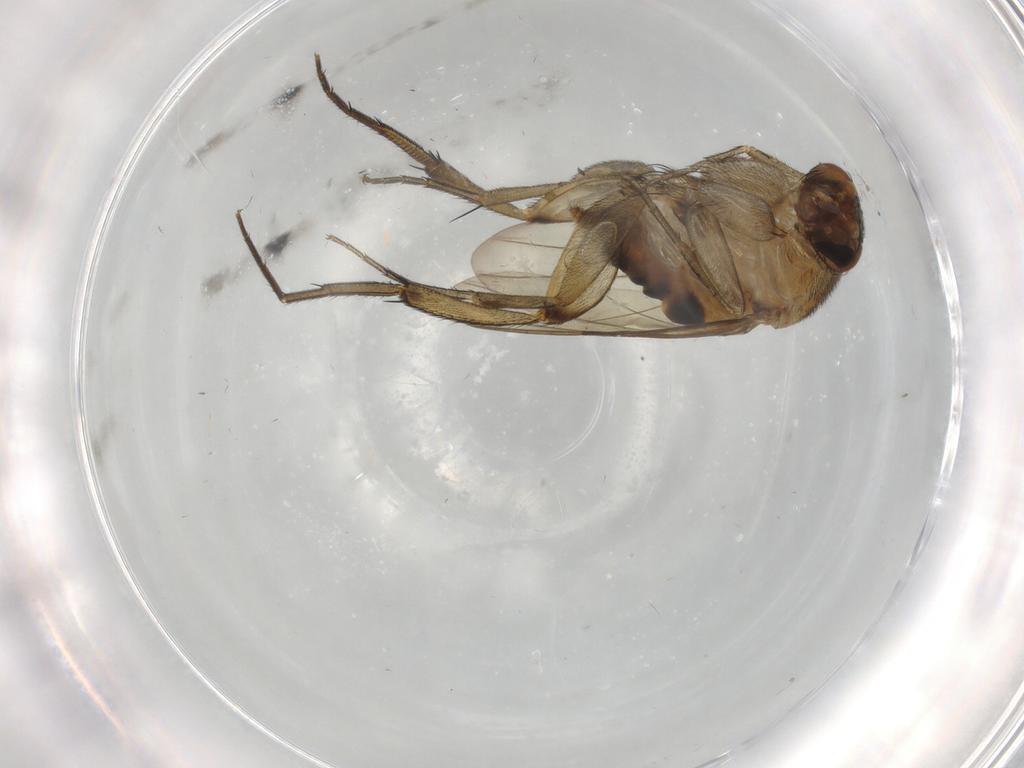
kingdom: Animalia
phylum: Arthropoda
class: Insecta
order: Diptera
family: Phoridae
